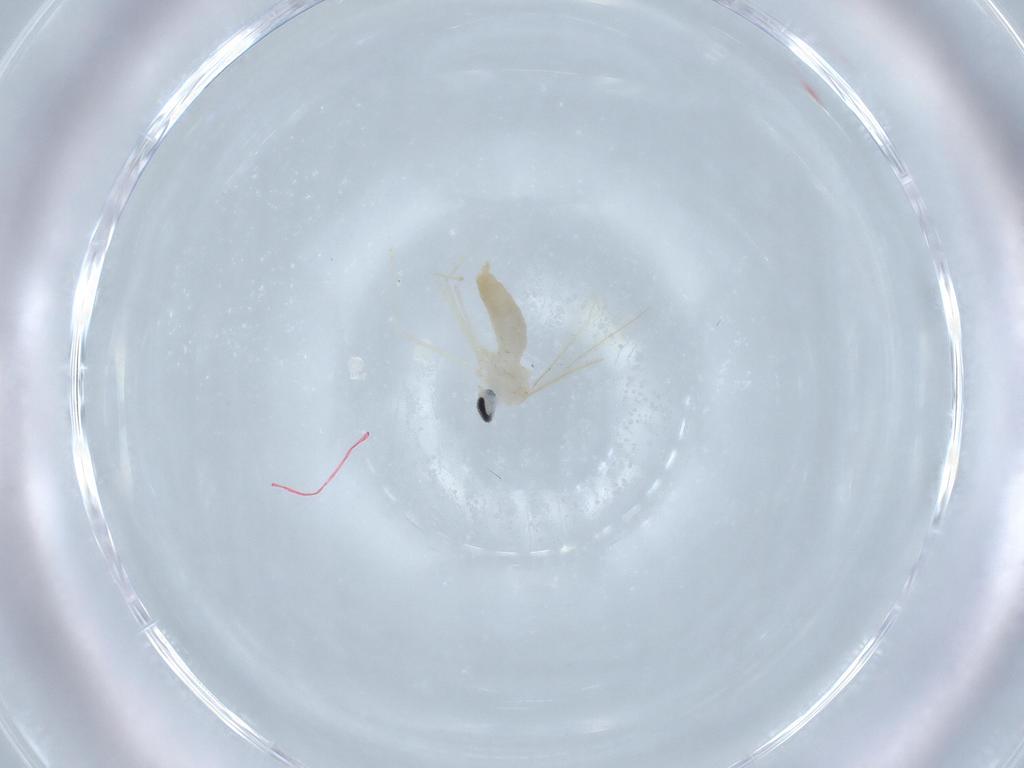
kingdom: Animalia
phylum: Arthropoda
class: Insecta
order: Diptera
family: Cecidomyiidae
